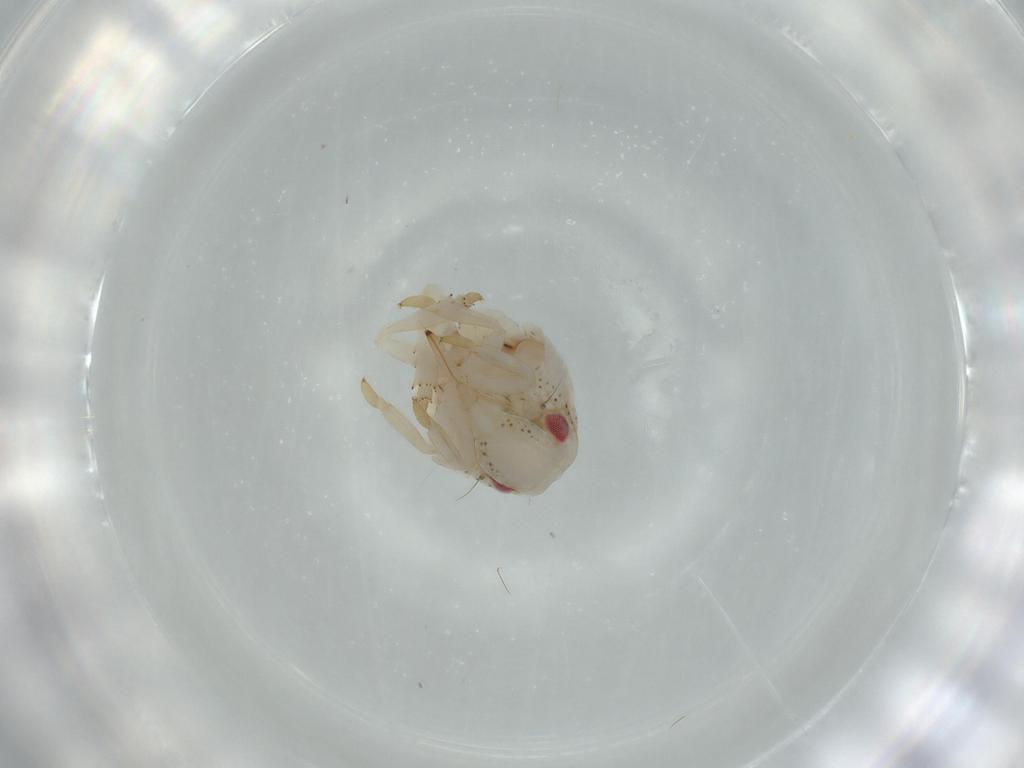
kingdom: Animalia
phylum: Arthropoda
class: Insecta
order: Hemiptera
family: Acanaloniidae
